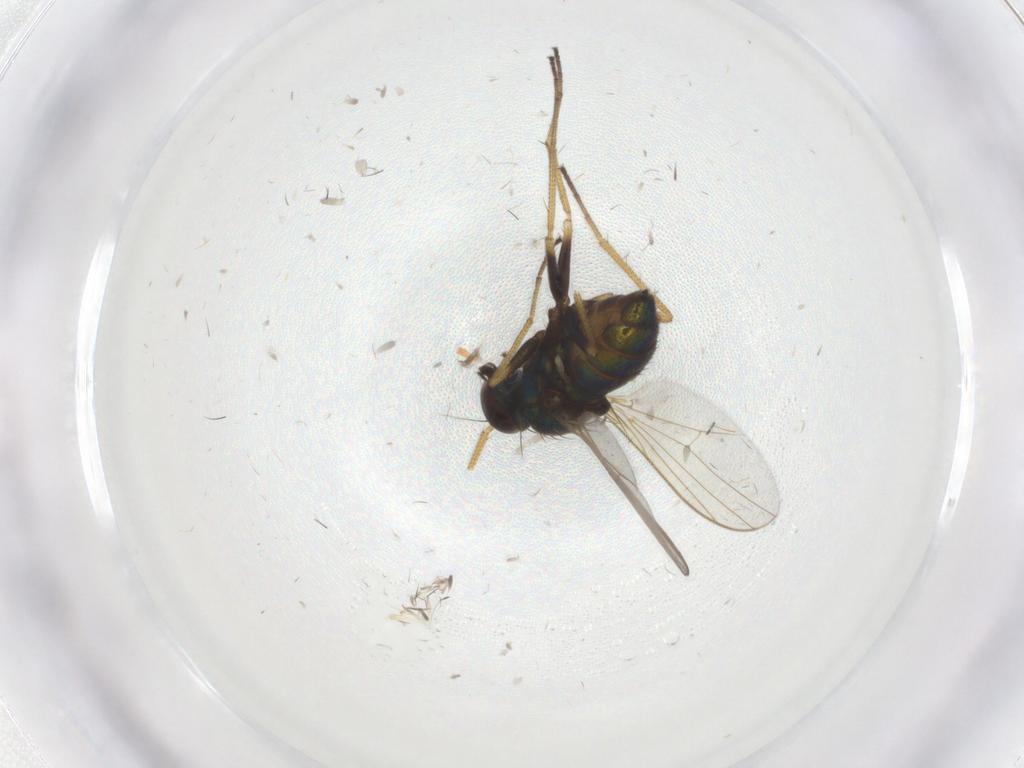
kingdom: Animalia
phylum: Arthropoda
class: Insecta
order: Diptera
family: Dolichopodidae
